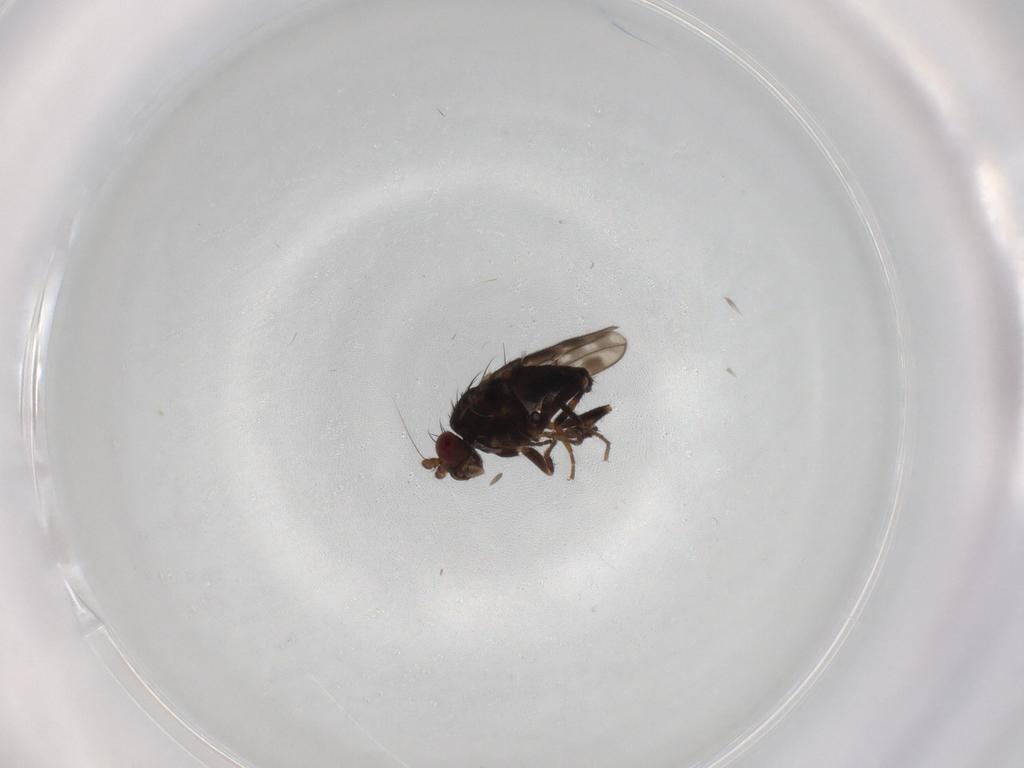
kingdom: Animalia
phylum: Arthropoda
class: Insecta
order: Diptera
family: Sphaeroceridae
